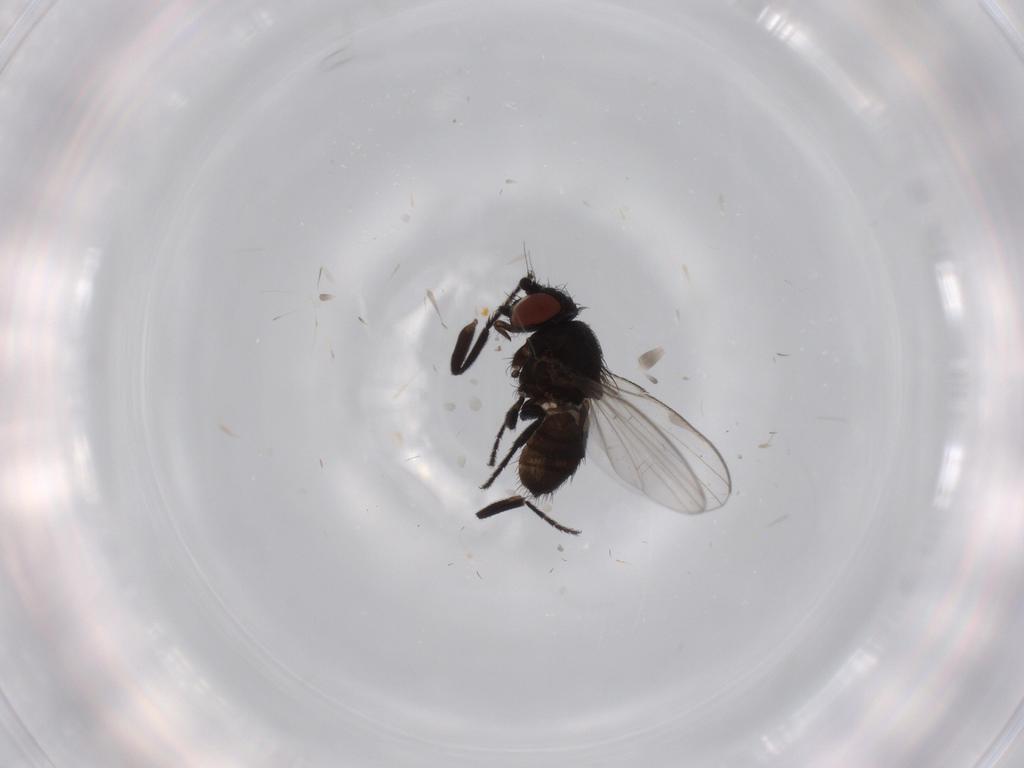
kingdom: Animalia
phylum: Arthropoda
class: Insecta
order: Diptera
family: Milichiidae
